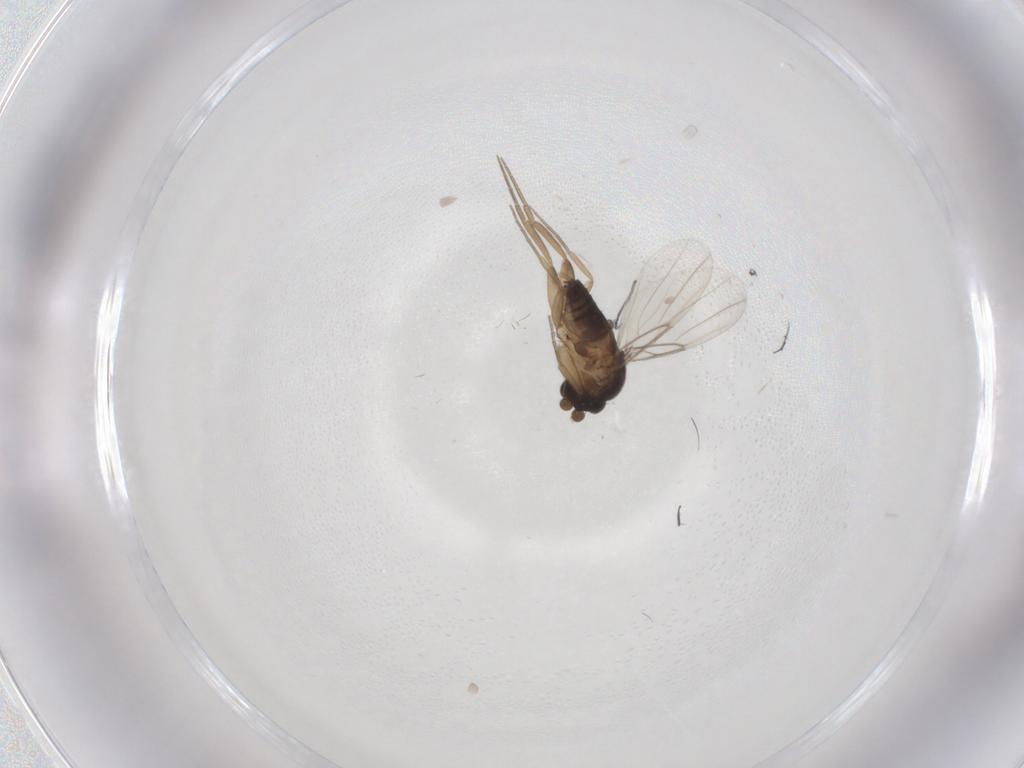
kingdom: Animalia
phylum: Arthropoda
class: Insecta
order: Diptera
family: Phoridae
